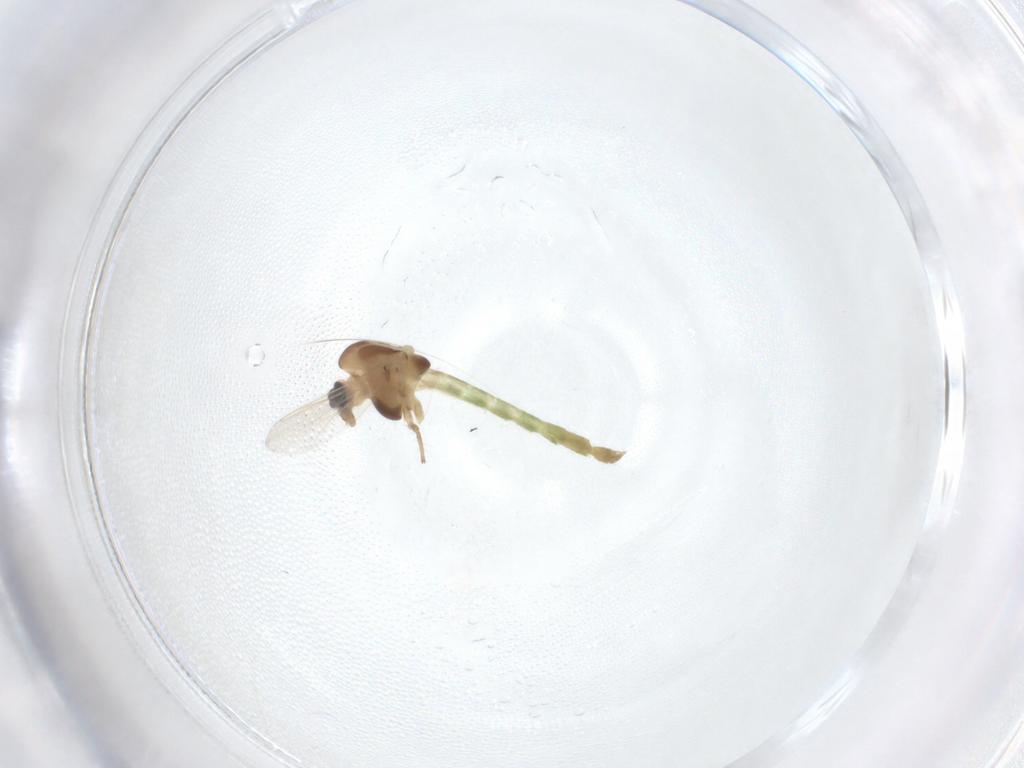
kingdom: Animalia
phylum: Arthropoda
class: Insecta
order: Diptera
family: Chironomidae
